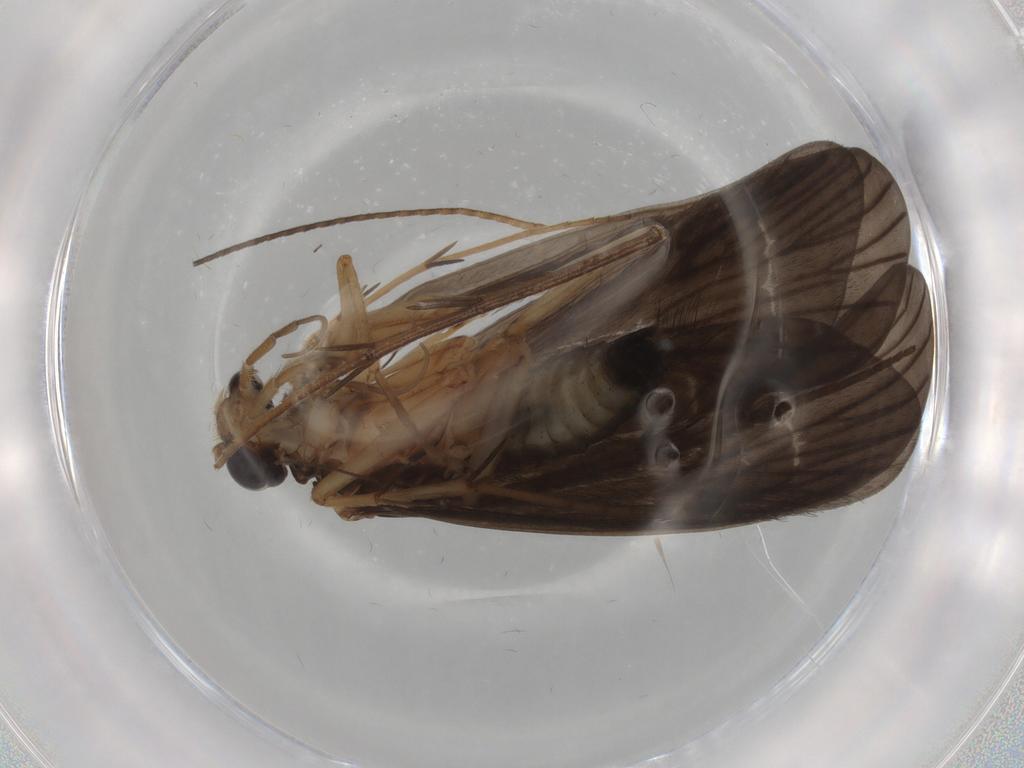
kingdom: Animalia
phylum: Arthropoda
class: Insecta
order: Trichoptera
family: Philopotamidae
